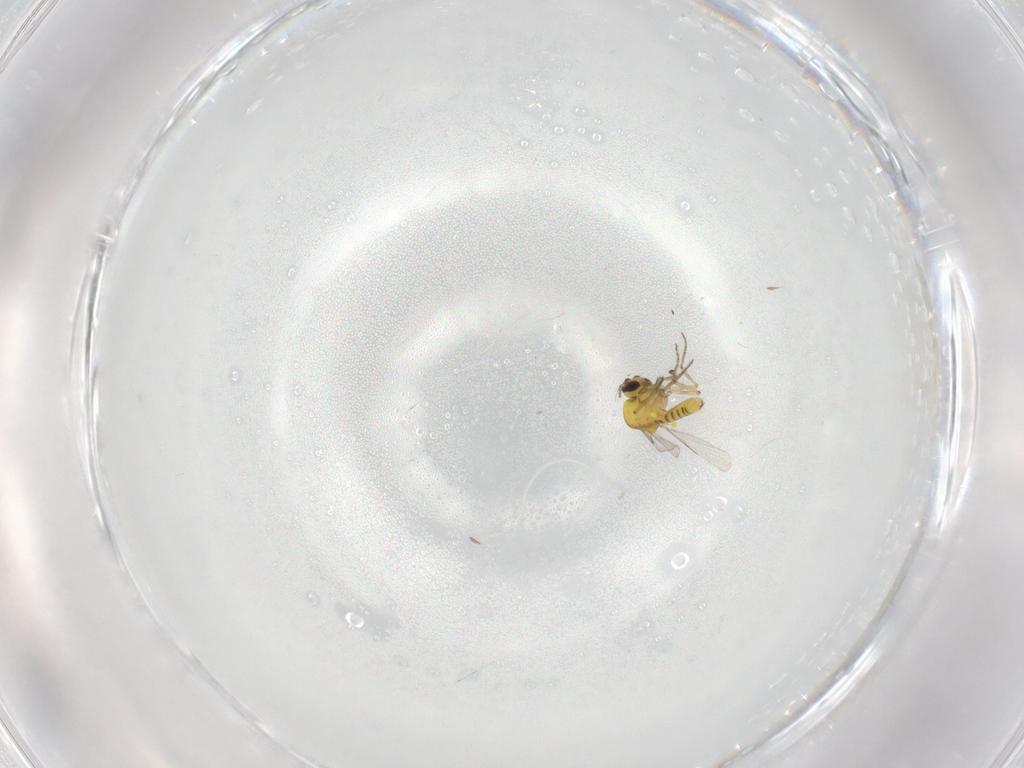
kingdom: Animalia
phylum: Arthropoda
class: Insecta
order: Diptera
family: Ceratopogonidae
